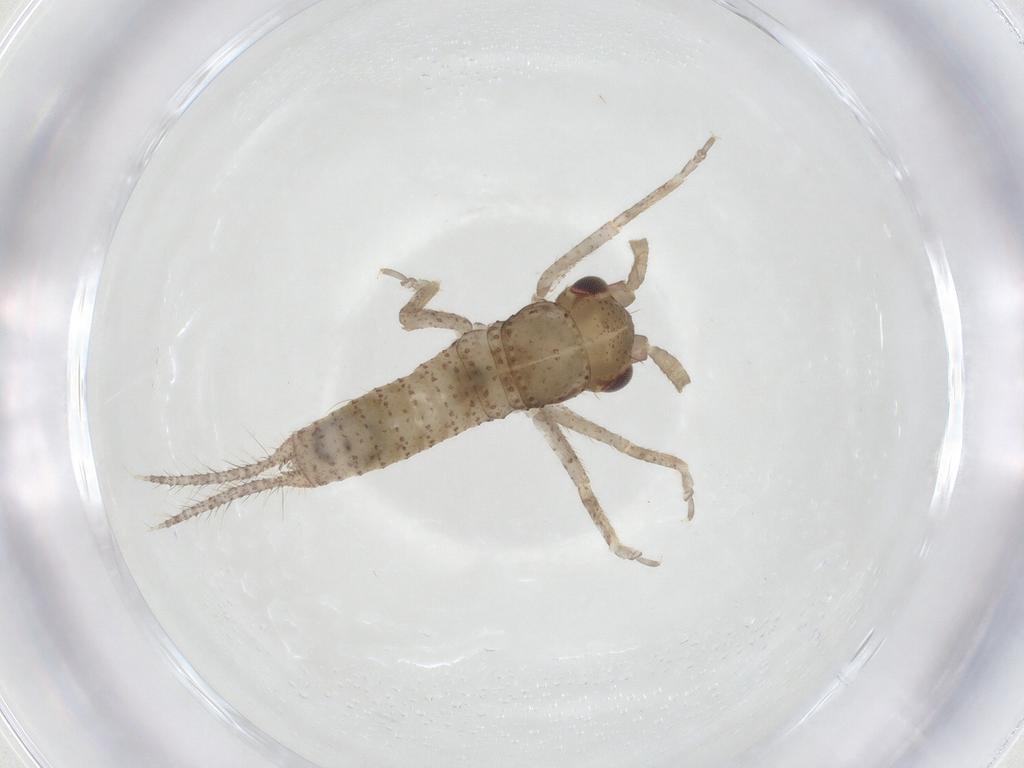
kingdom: Animalia
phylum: Arthropoda
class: Insecta
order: Orthoptera
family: Gryllidae
